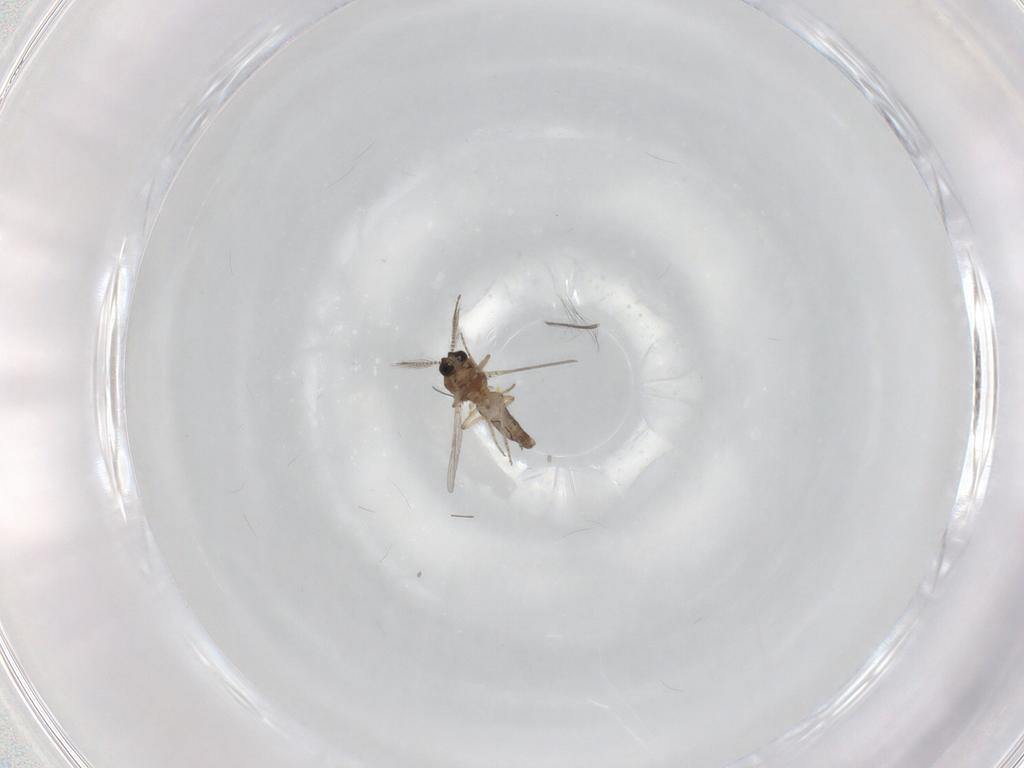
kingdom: Animalia
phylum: Arthropoda
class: Insecta
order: Diptera
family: Ceratopogonidae
